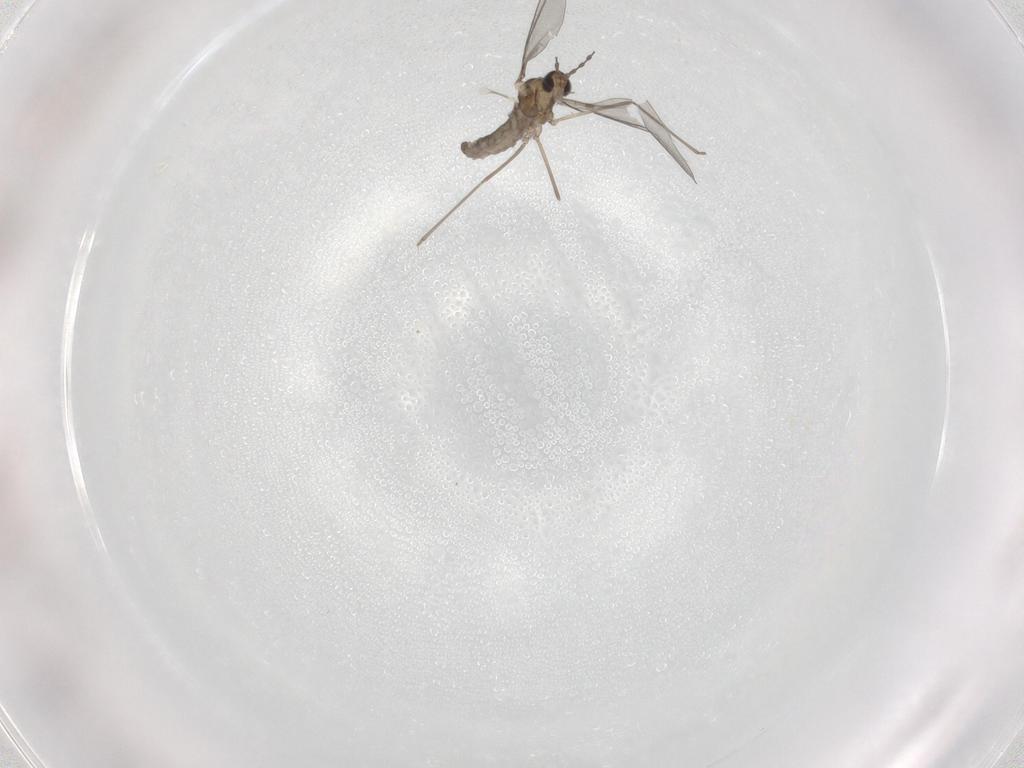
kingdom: Animalia
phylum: Arthropoda
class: Insecta
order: Diptera
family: Cecidomyiidae
